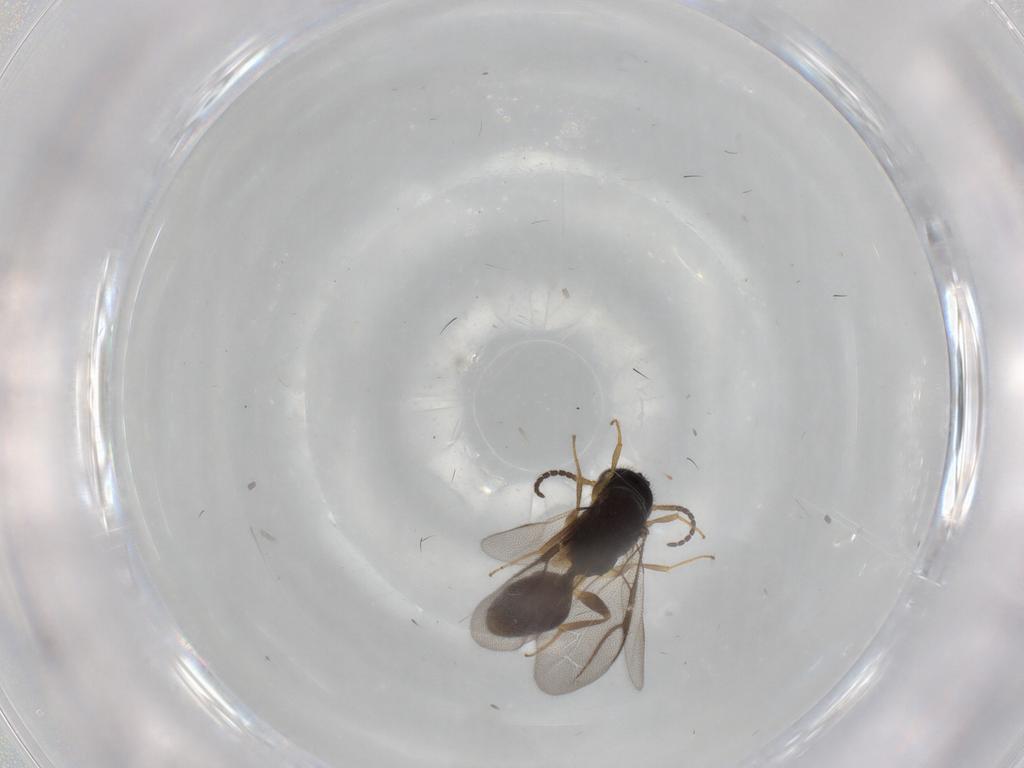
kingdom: Animalia
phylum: Arthropoda
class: Insecta
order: Hymenoptera
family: Bethylidae
